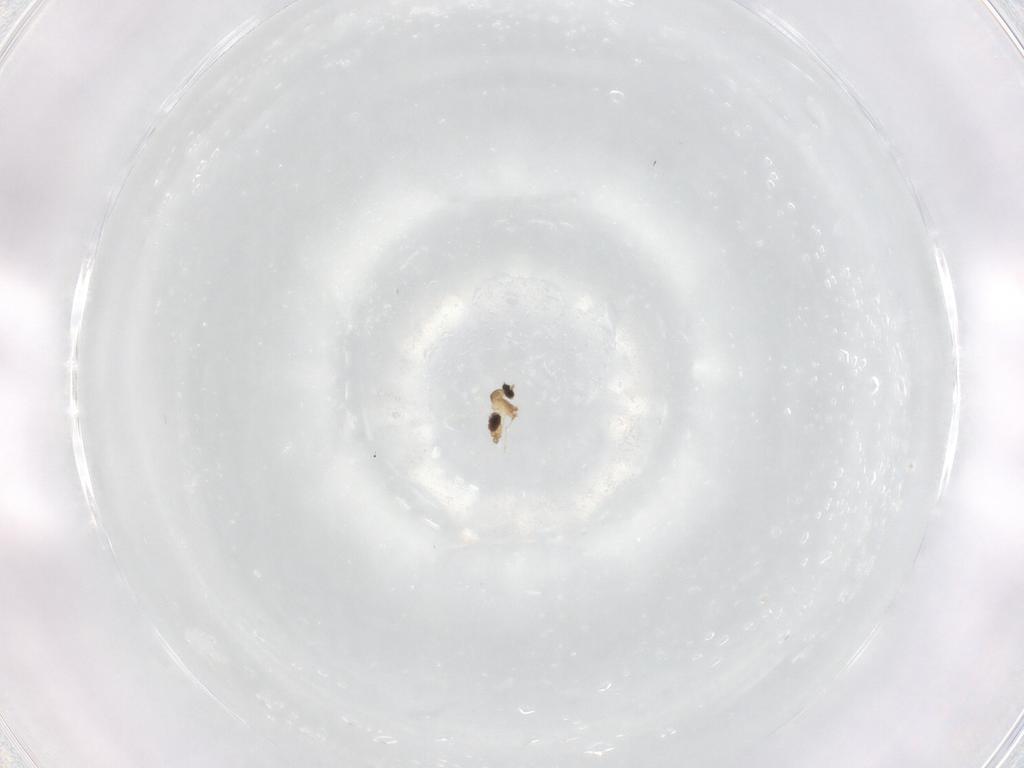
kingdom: Animalia
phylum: Arthropoda
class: Insecta
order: Diptera
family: Cecidomyiidae
